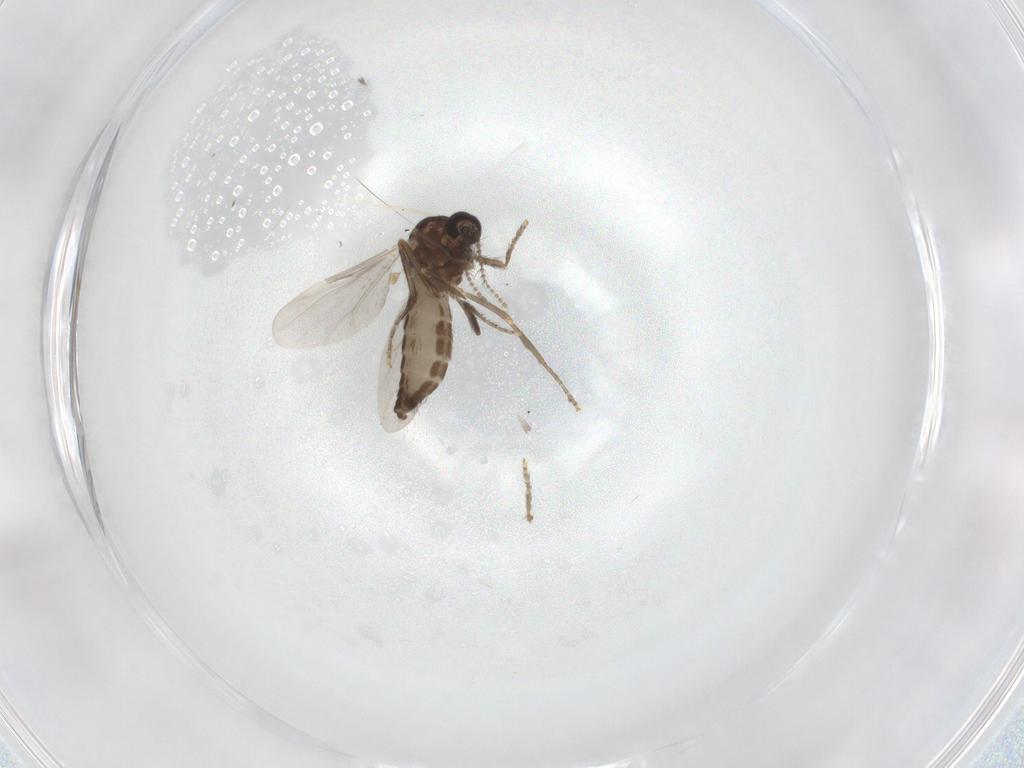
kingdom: Animalia
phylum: Arthropoda
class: Insecta
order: Diptera
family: Ceratopogonidae
